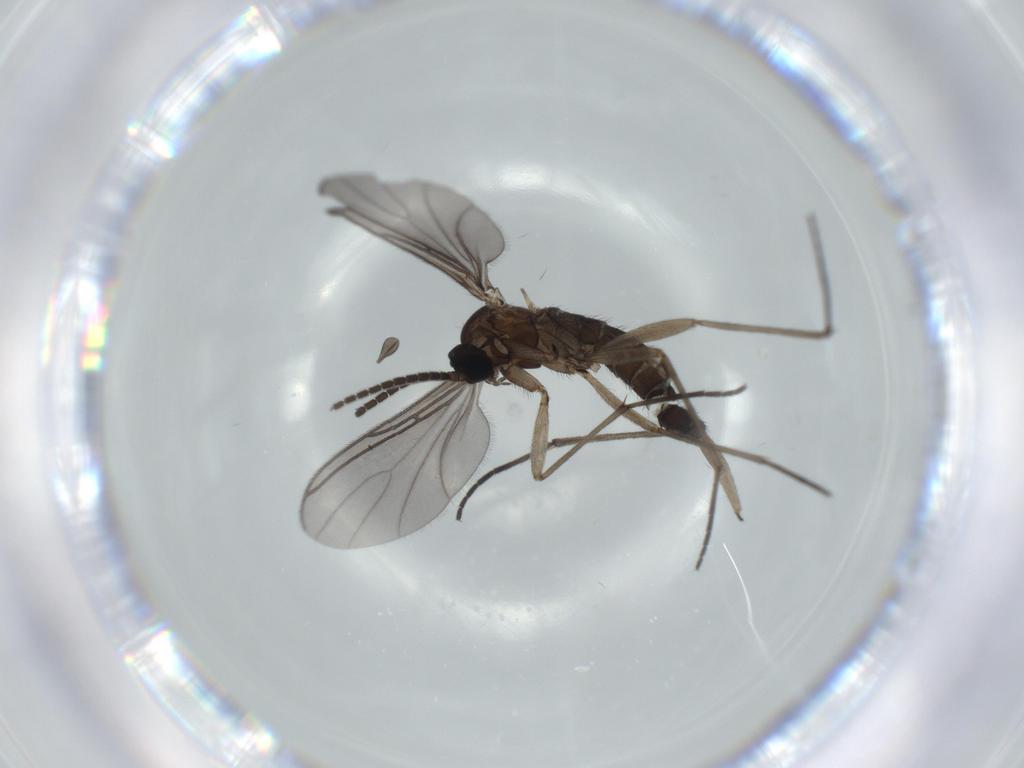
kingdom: Animalia
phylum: Arthropoda
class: Insecta
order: Diptera
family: Sciaridae
